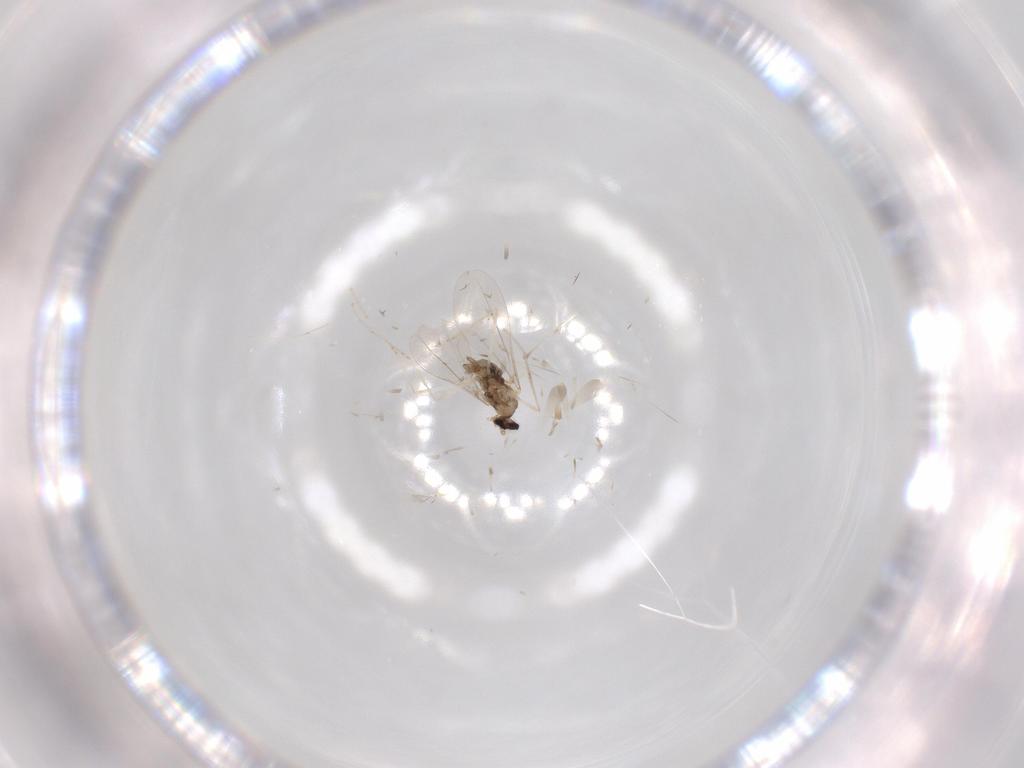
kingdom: Animalia
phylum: Arthropoda
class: Insecta
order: Diptera
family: Cecidomyiidae
